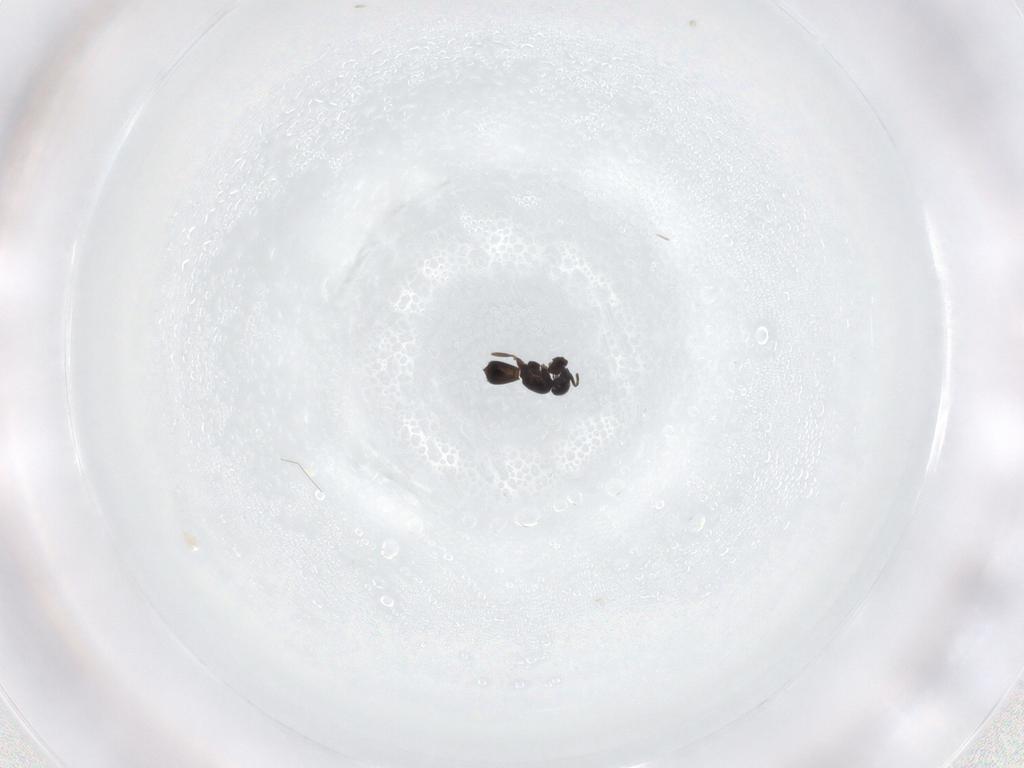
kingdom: Animalia
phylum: Arthropoda
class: Insecta
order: Hymenoptera
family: Scelionidae
